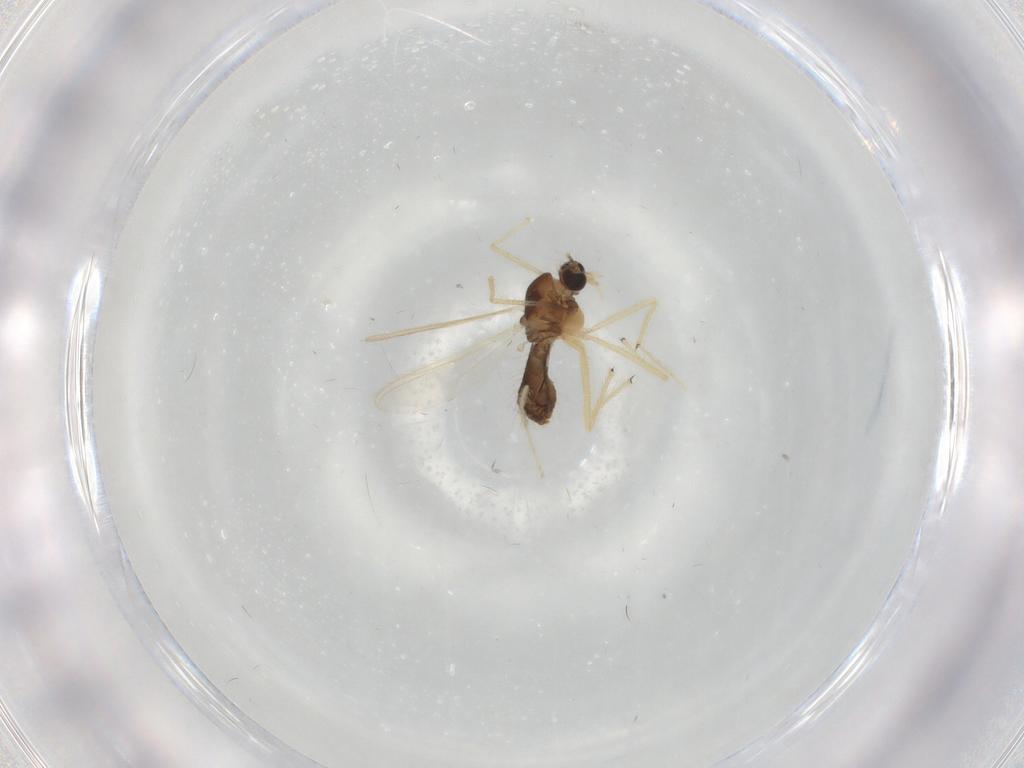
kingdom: Animalia
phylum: Arthropoda
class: Insecta
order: Diptera
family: Chironomidae
